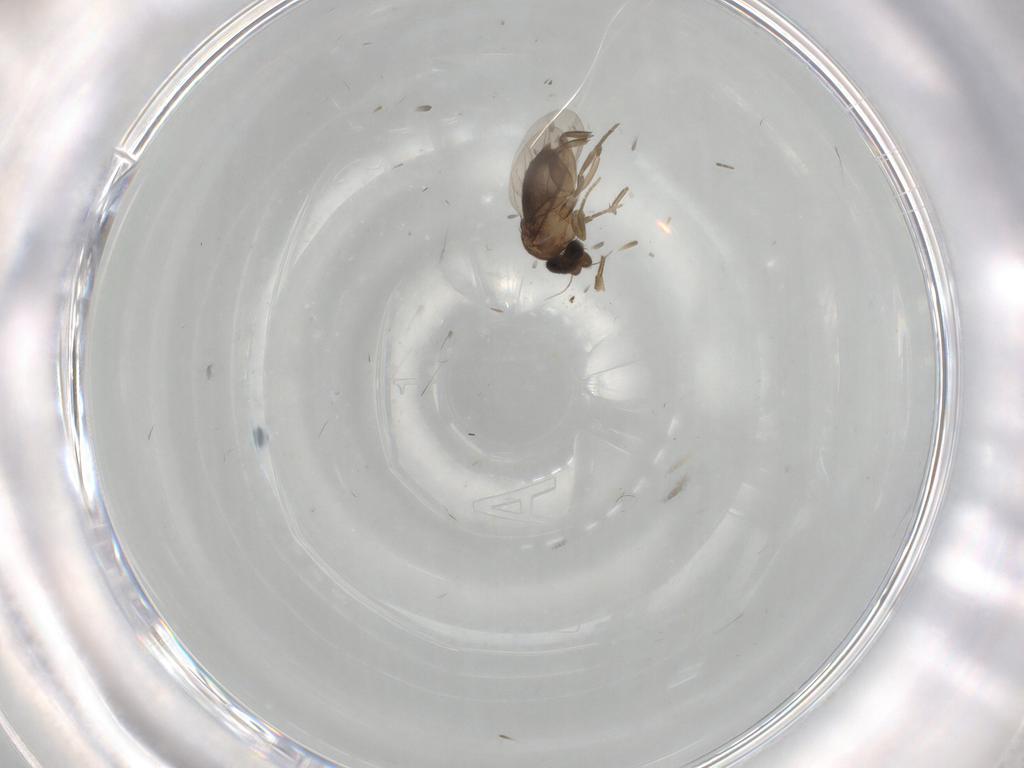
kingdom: Animalia
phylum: Arthropoda
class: Insecta
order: Diptera
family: Phoridae
